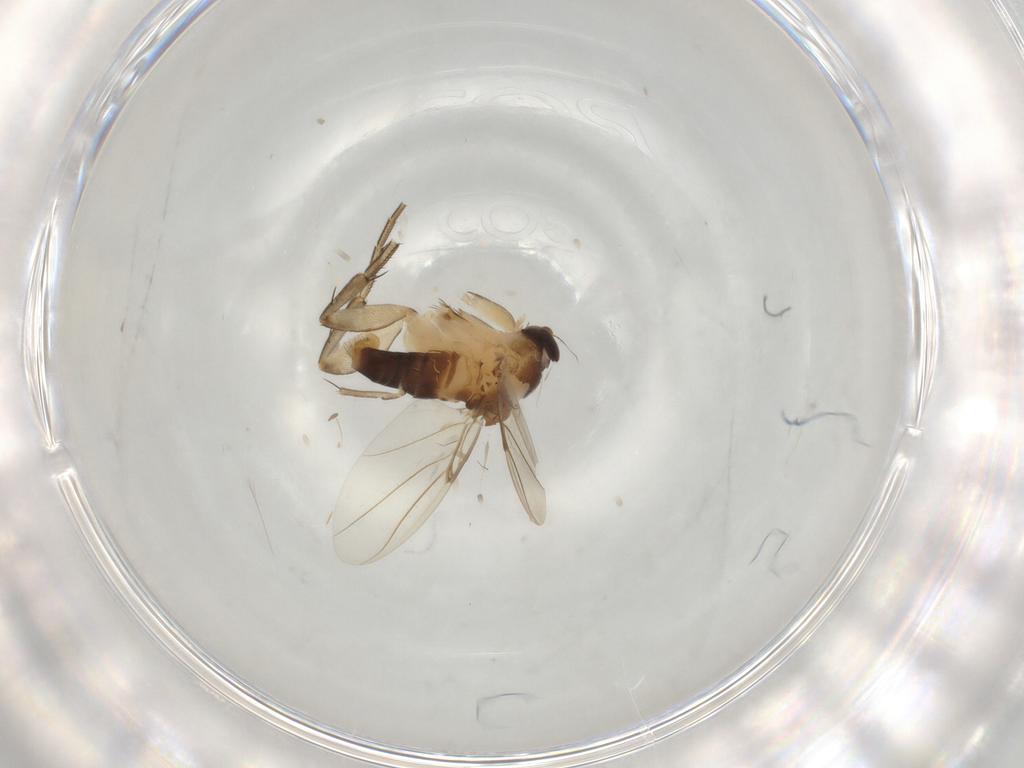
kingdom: Animalia
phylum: Arthropoda
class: Insecta
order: Diptera
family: Phoridae
